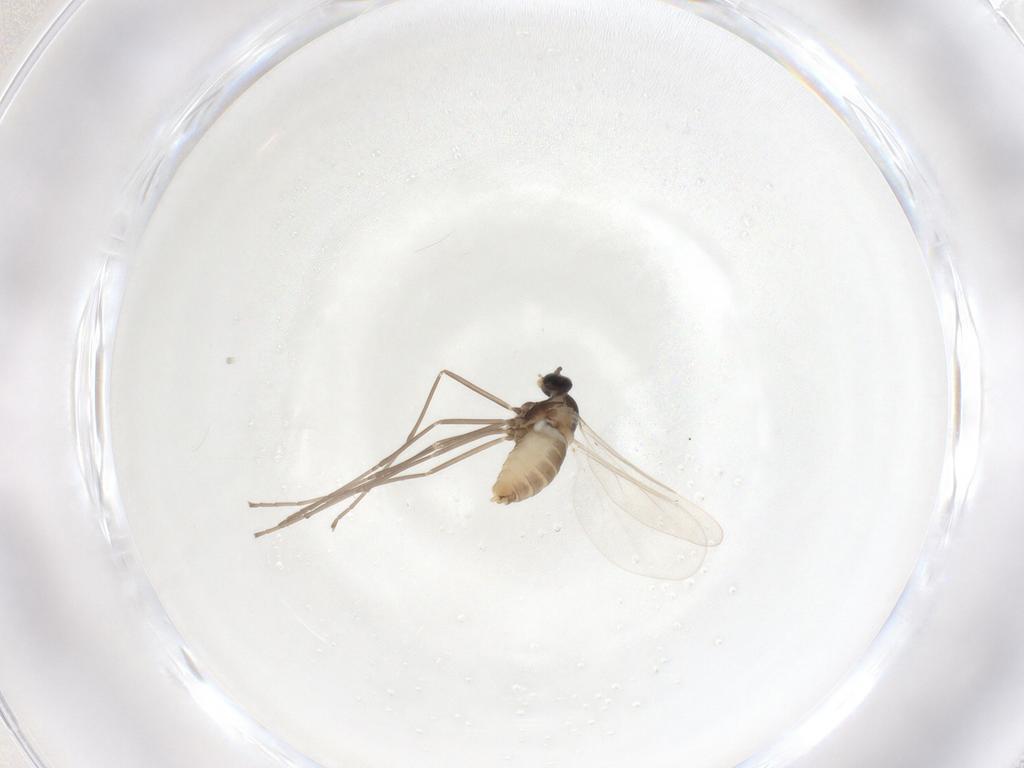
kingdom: Animalia
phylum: Arthropoda
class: Insecta
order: Diptera
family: Cecidomyiidae
